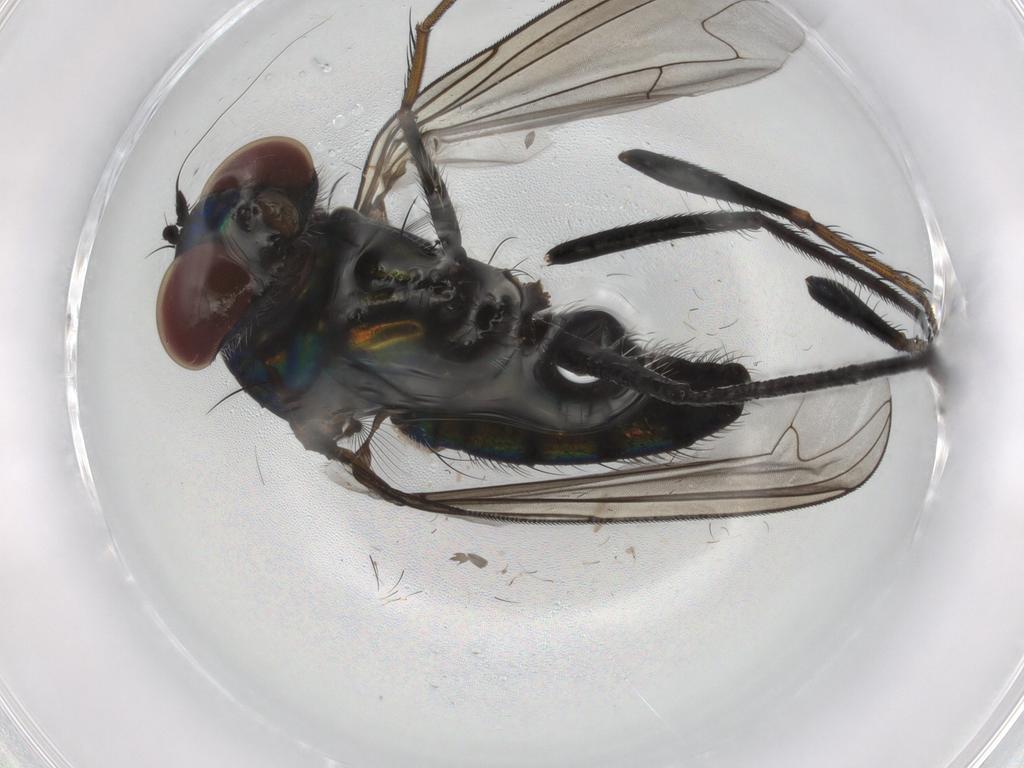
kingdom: Animalia
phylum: Arthropoda
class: Insecta
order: Diptera
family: Dolichopodidae
